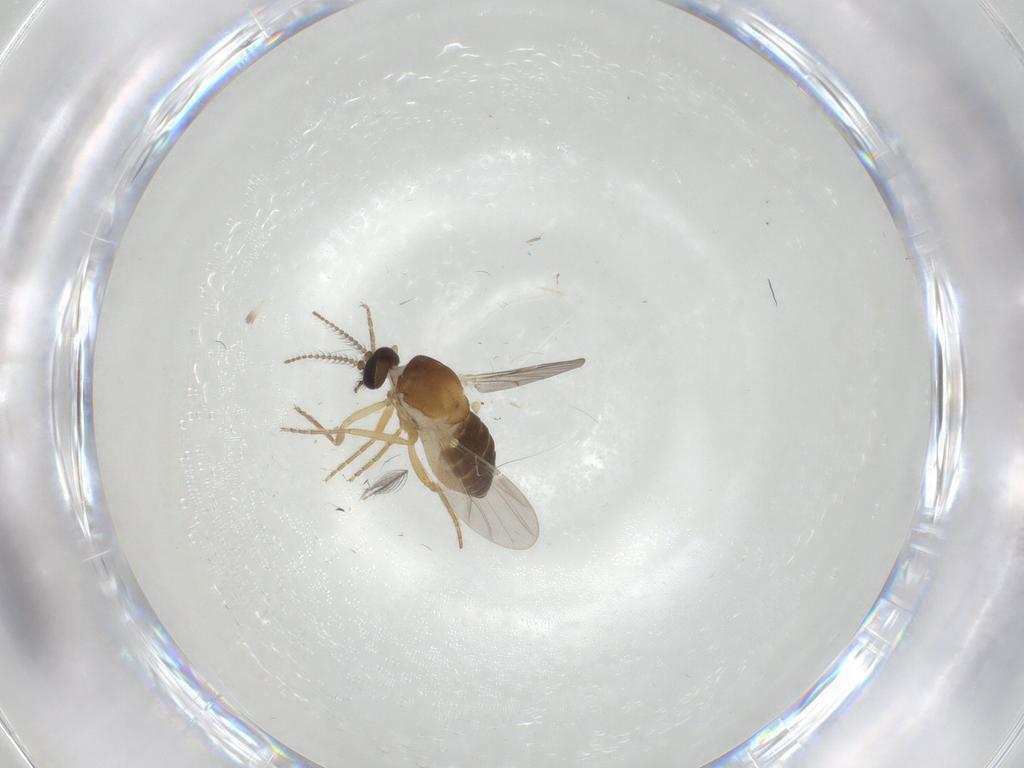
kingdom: Animalia
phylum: Arthropoda
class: Insecta
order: Diptera
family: Ceratopogonidae
